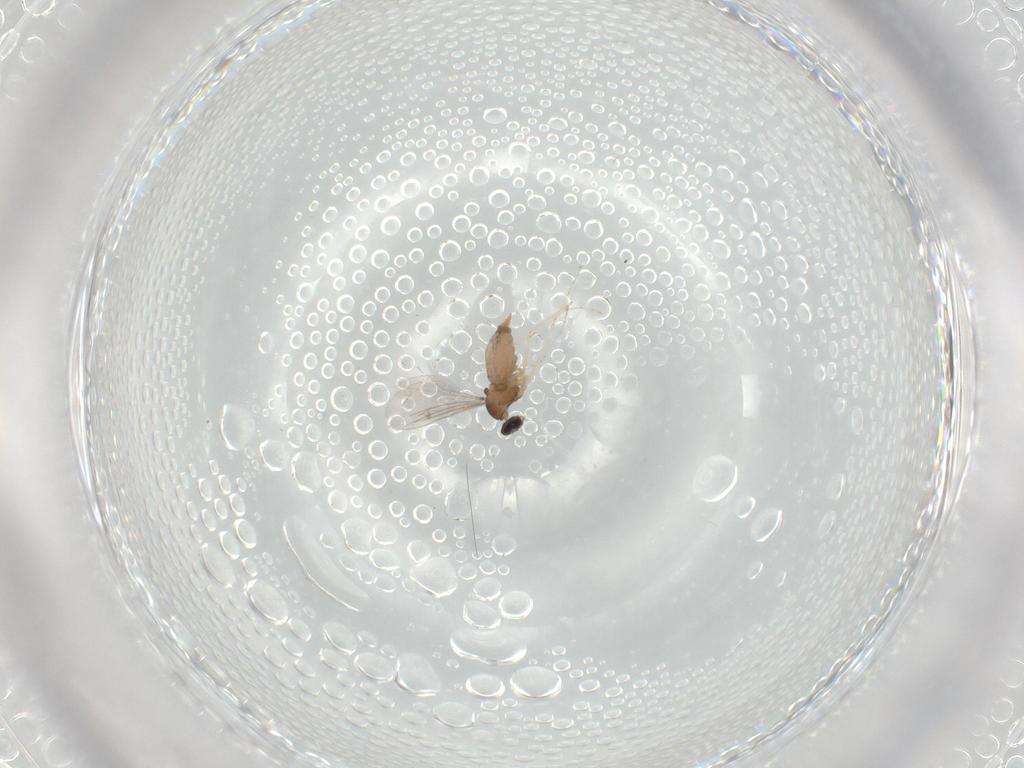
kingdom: Animalia
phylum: Arthropoda
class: Insecta
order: Diptera
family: Cecidomyiidae
